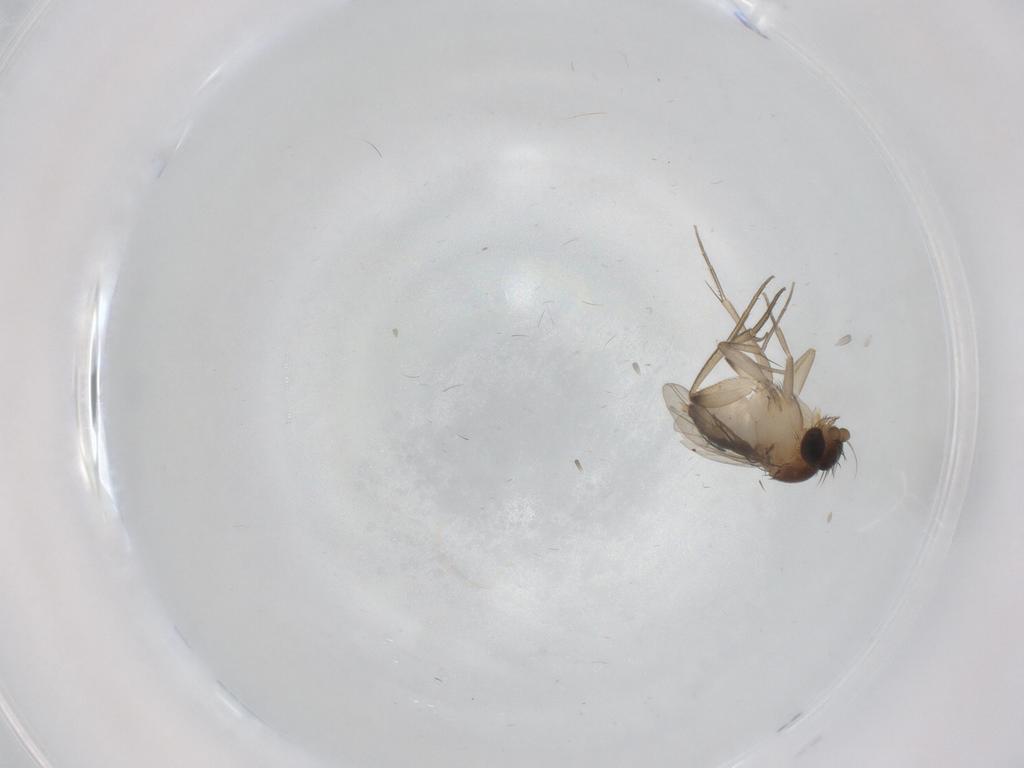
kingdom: Animalia
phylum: Arthropoda
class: Insecta
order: Diptera
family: Phoridae
